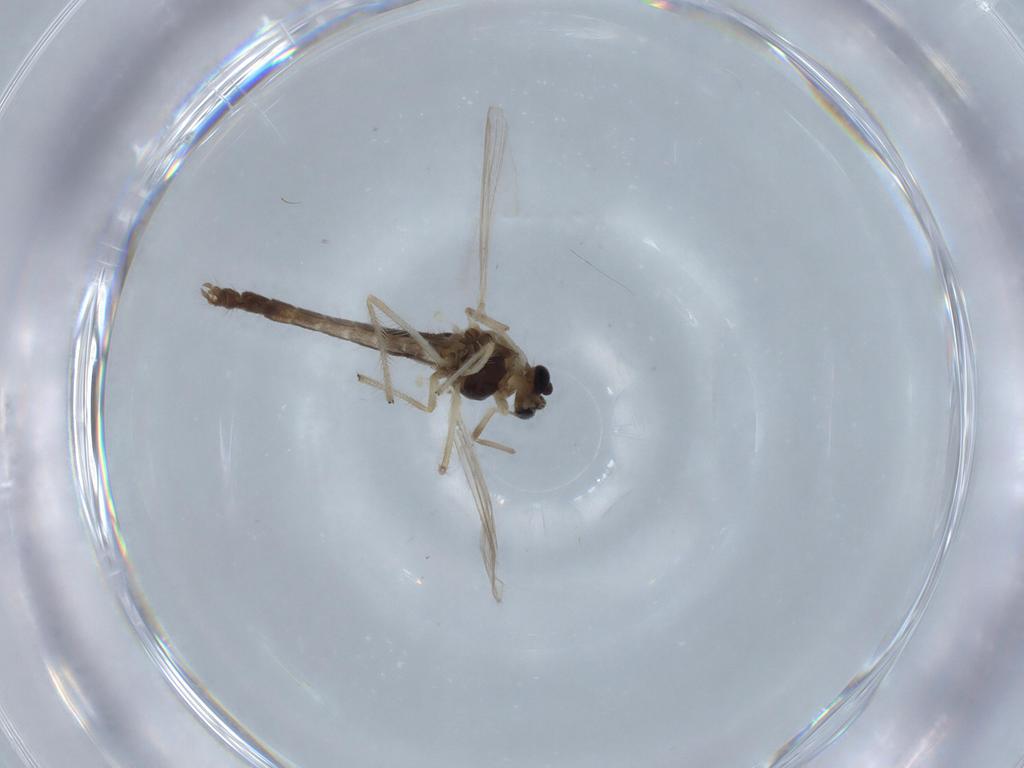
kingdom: Animalia
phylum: Arthropoda
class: Insecta
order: Diptera
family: Chironomidae
